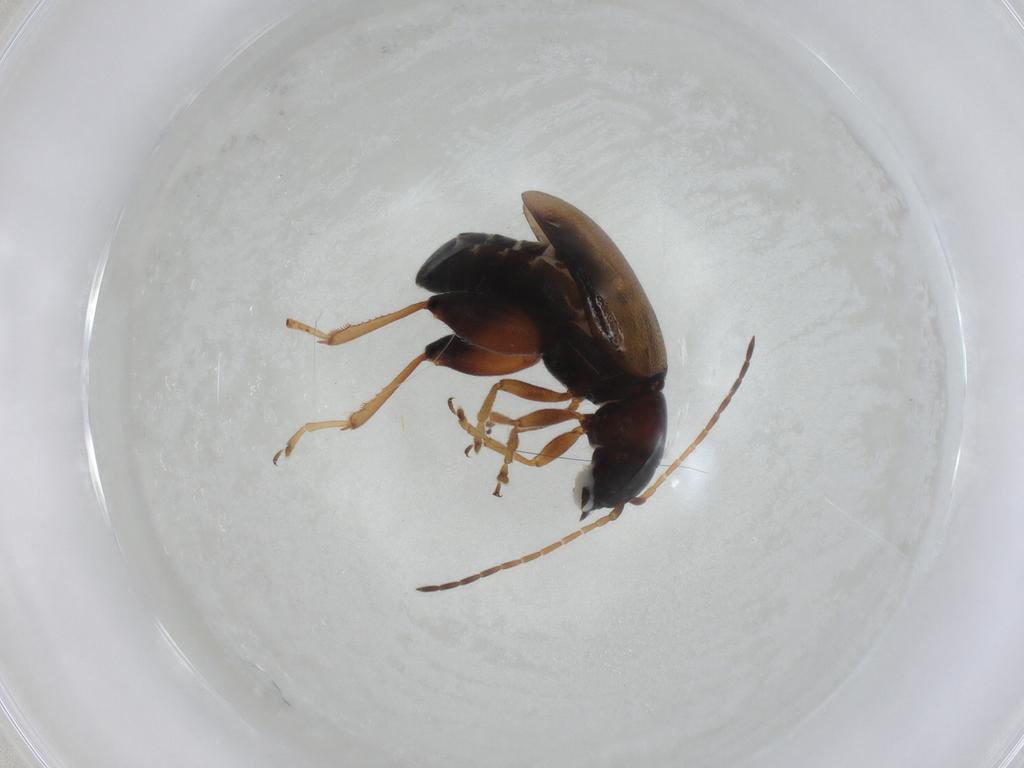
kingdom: Animalia
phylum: Arthropoda
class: Insecta
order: Coleoptera
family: Chrysomelidae
